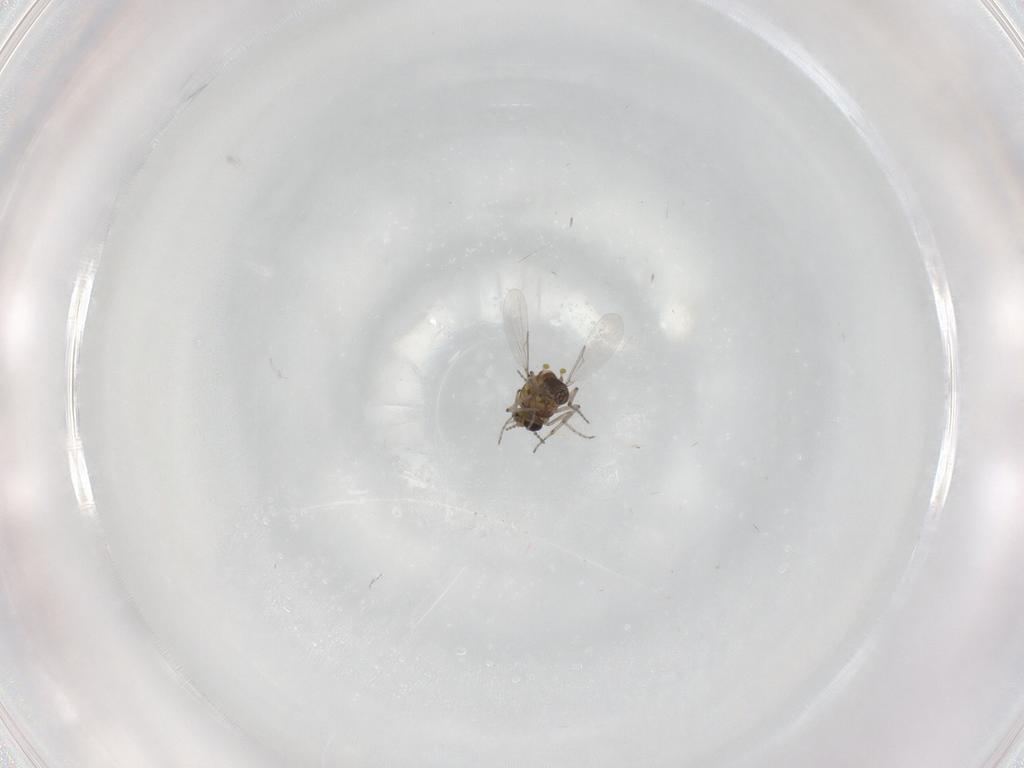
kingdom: Animalia
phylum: Arthropoda
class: Insecta
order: Diptera
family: Ceratopogonidae
